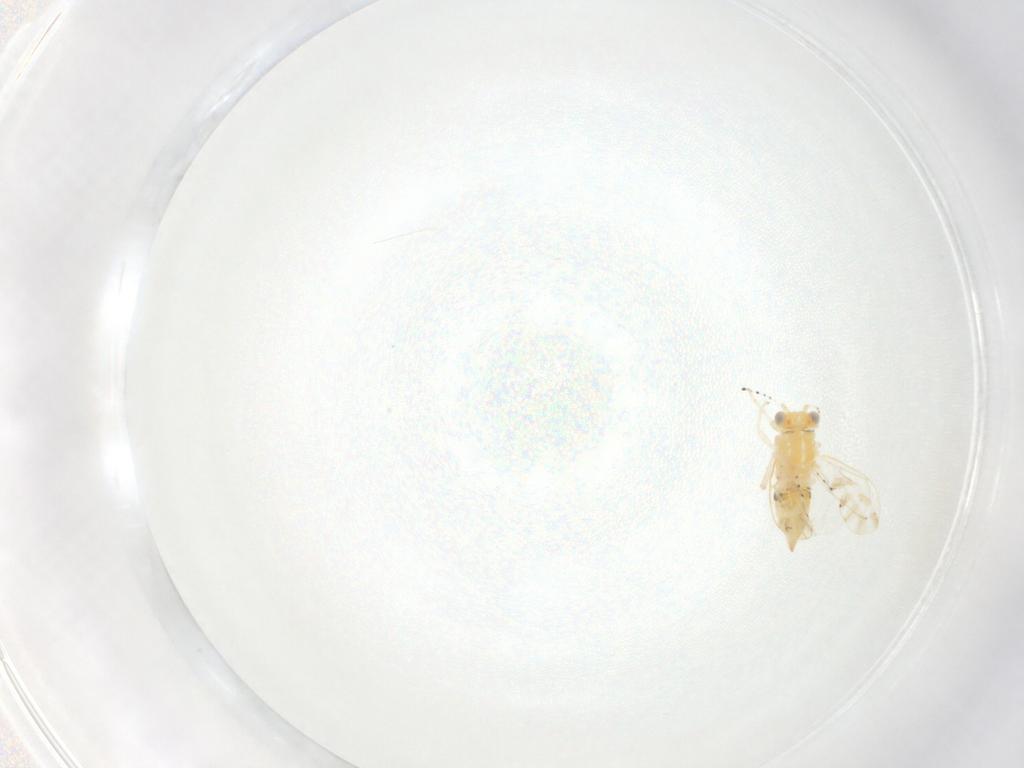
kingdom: Animalia
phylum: Arthropoda
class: Insecta
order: Hemiptera
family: Aphalaridae
